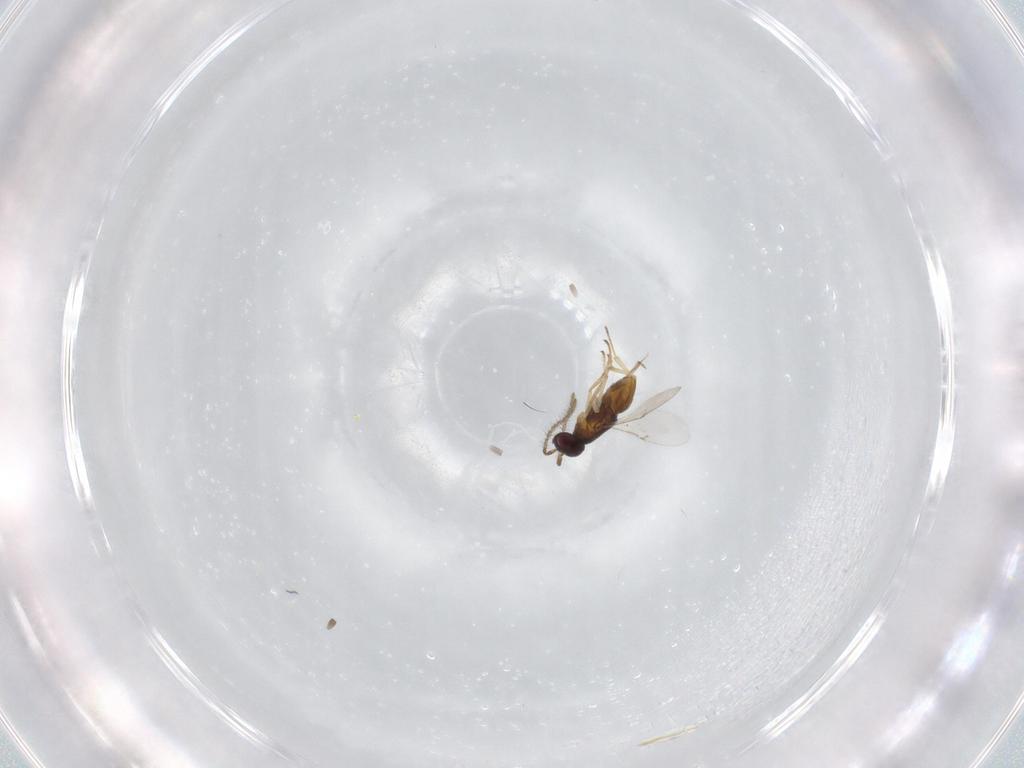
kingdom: Animalia
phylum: Arthropoda
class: Insecta
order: Hymenoptera
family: Encyrtidae
